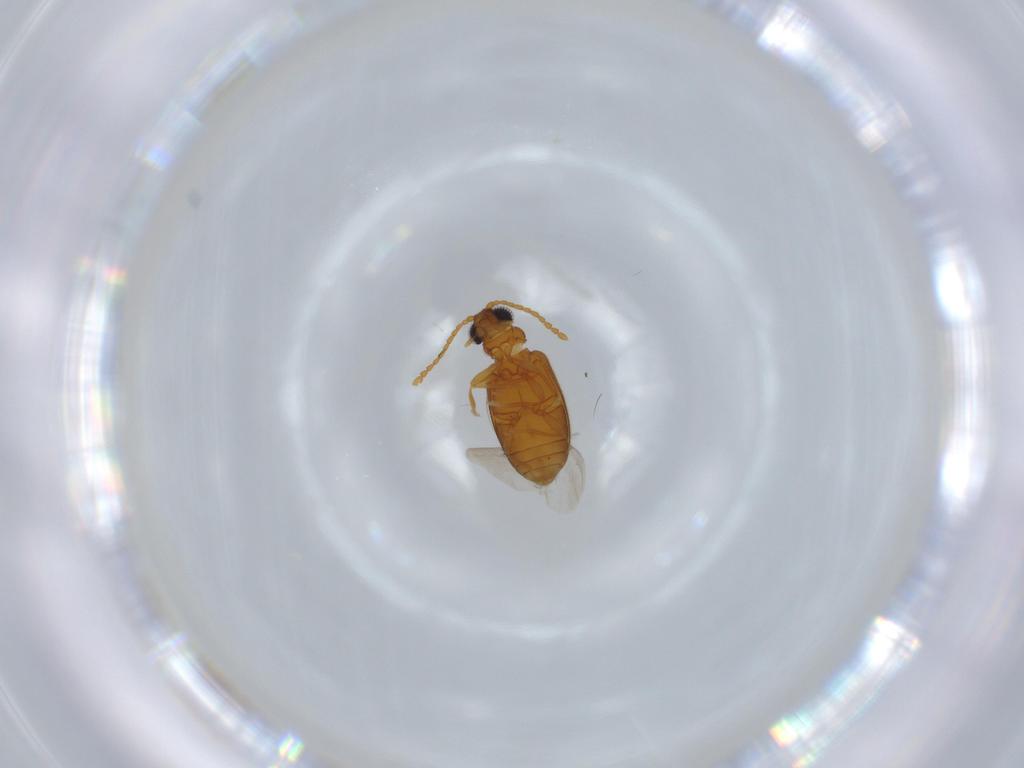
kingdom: Animalia
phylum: Arthropoda
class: Insecta
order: Coleoptera
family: Aderidae
